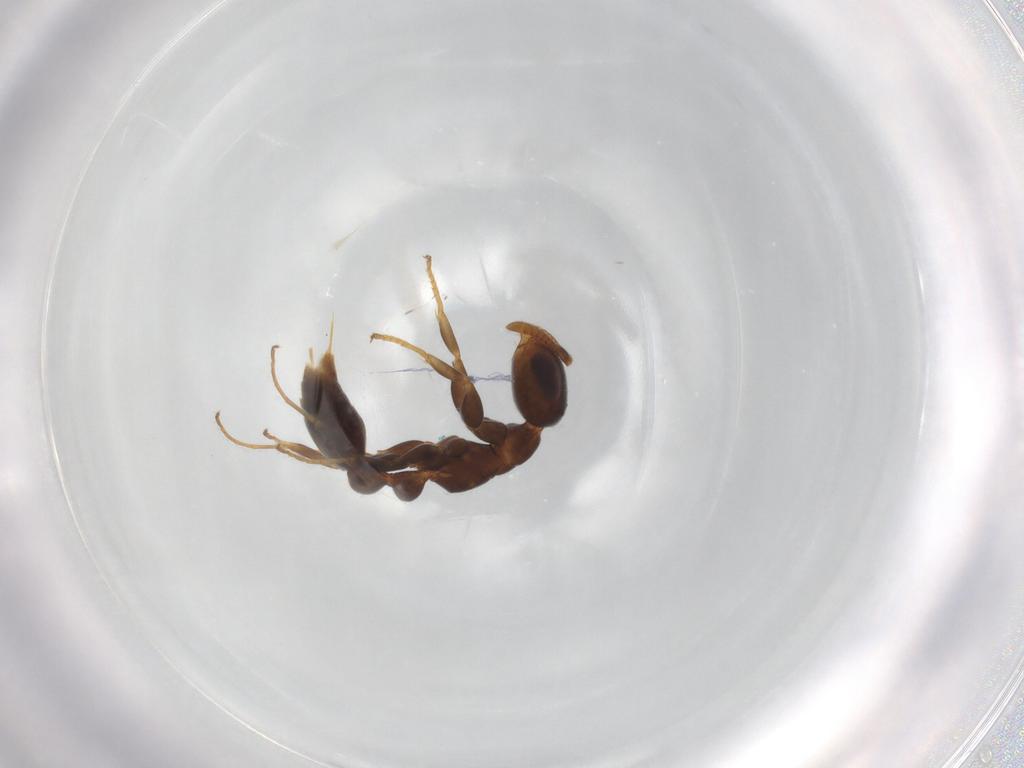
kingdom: Animalia
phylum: Arthropoda
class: Insecta
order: Hymenoptera
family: Formicidae
